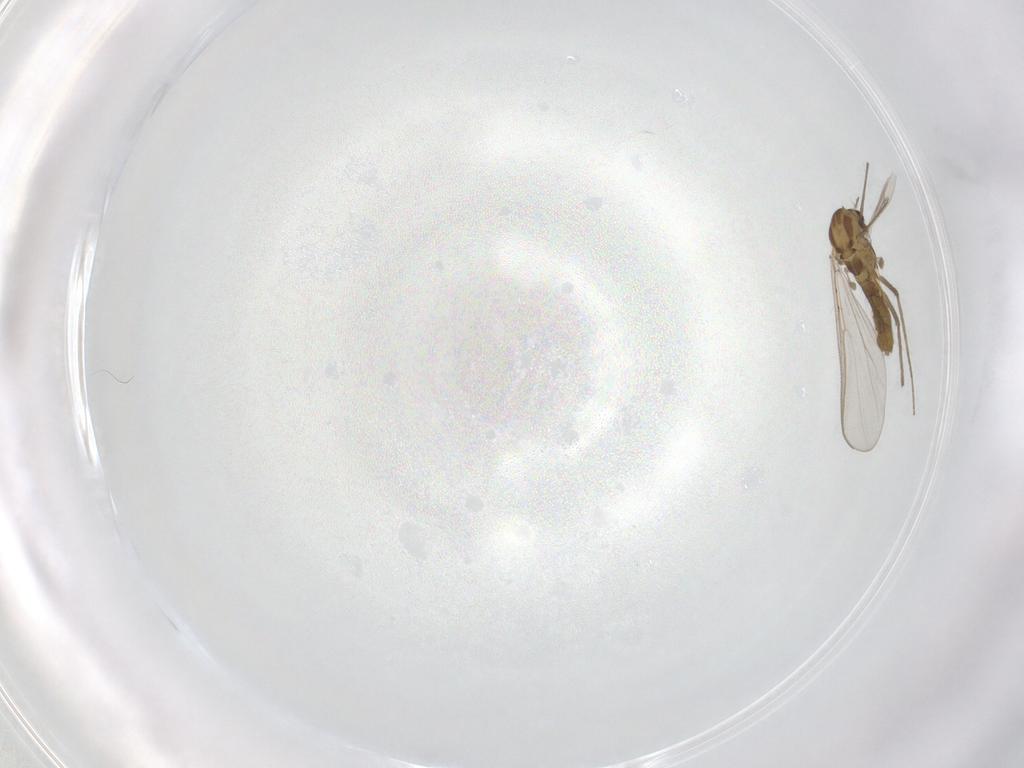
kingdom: Animalia
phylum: Arthropoda
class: Insecta
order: Diptera
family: Chironomidae
